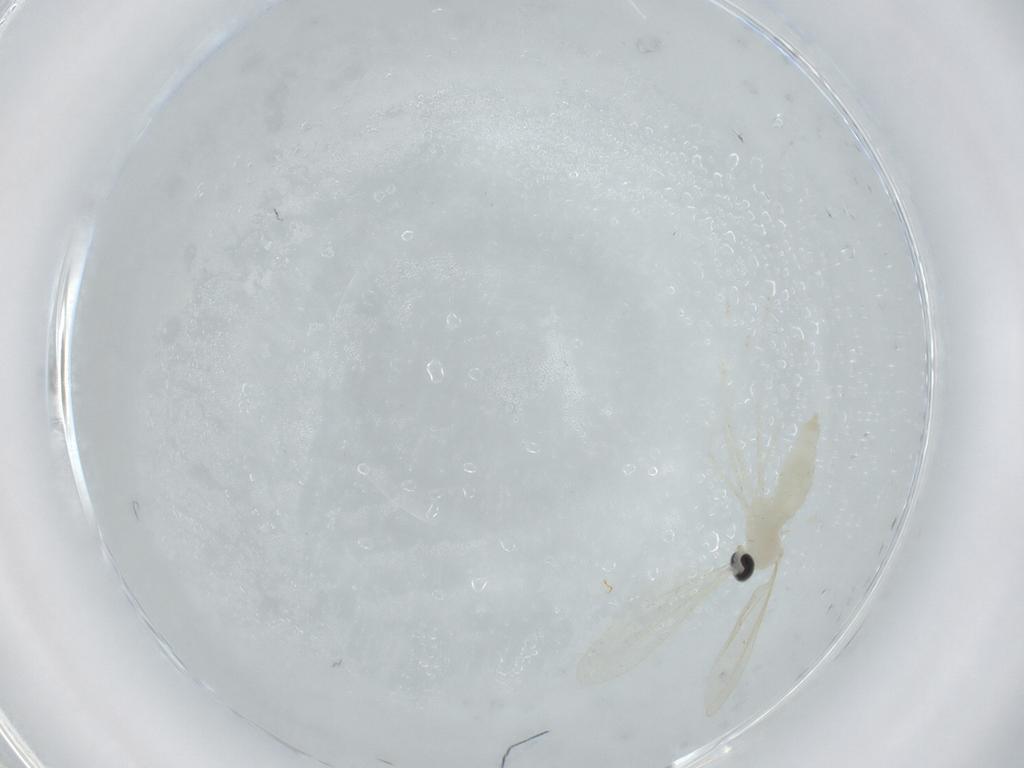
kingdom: Animalia
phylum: Arthropoda
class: Insecta
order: Diptera
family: Cecidomyiidae
